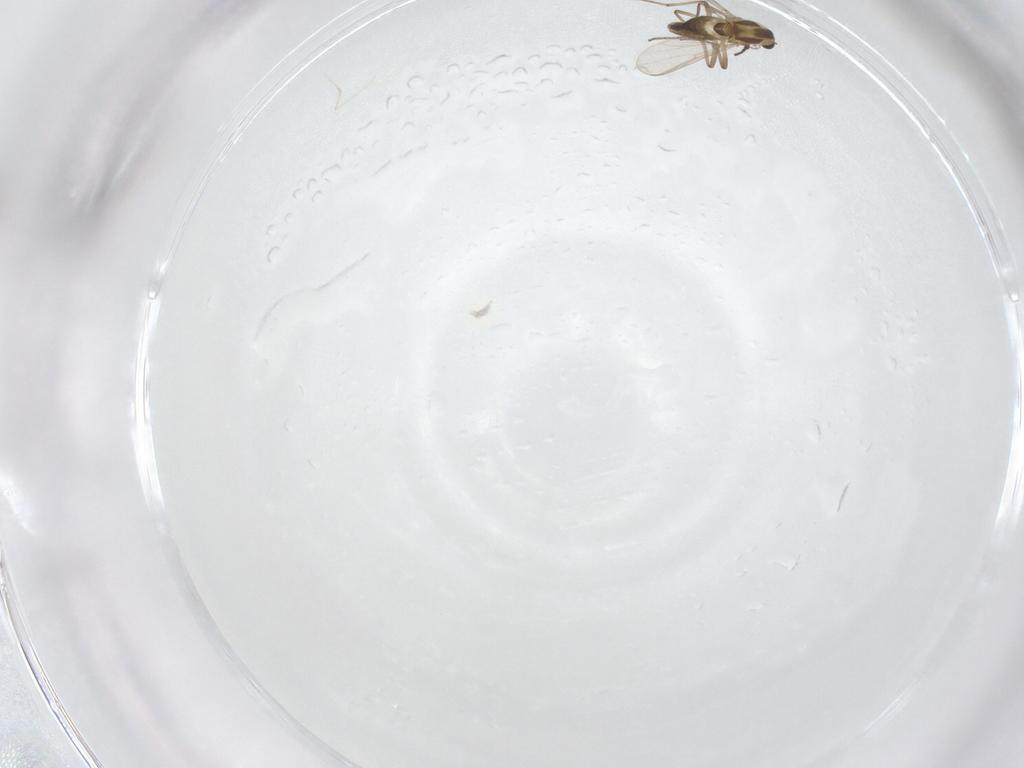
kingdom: Animalia
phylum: Arthropoda
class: Insecta
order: Diptera
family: Chironomidae
